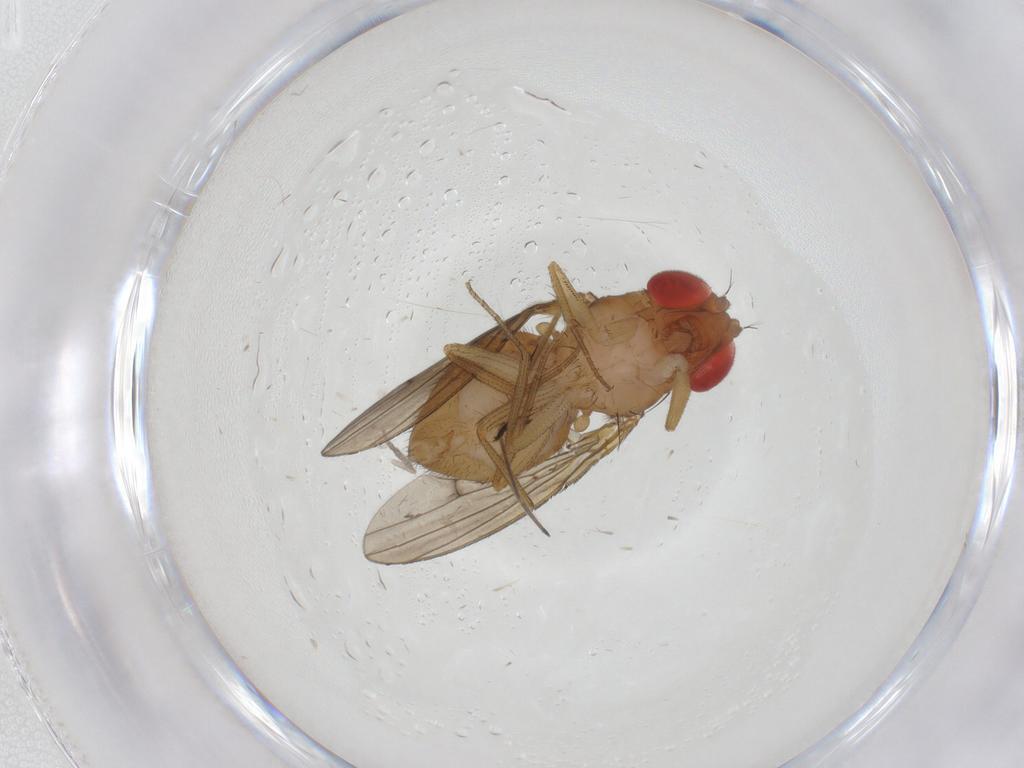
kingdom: Animalia
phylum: Arthropoda
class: Insecta
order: Diptera
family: Drosophilidae
